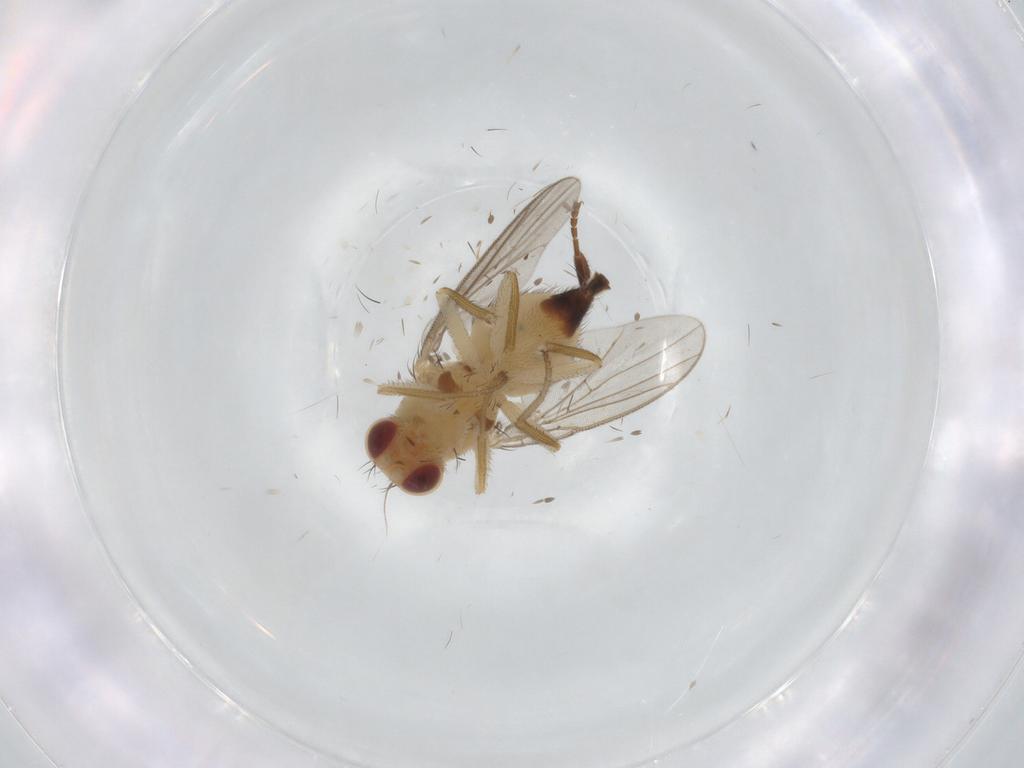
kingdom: Animalia
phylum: Arthropoda
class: Insecta
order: Diptera
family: Agromyzidae
